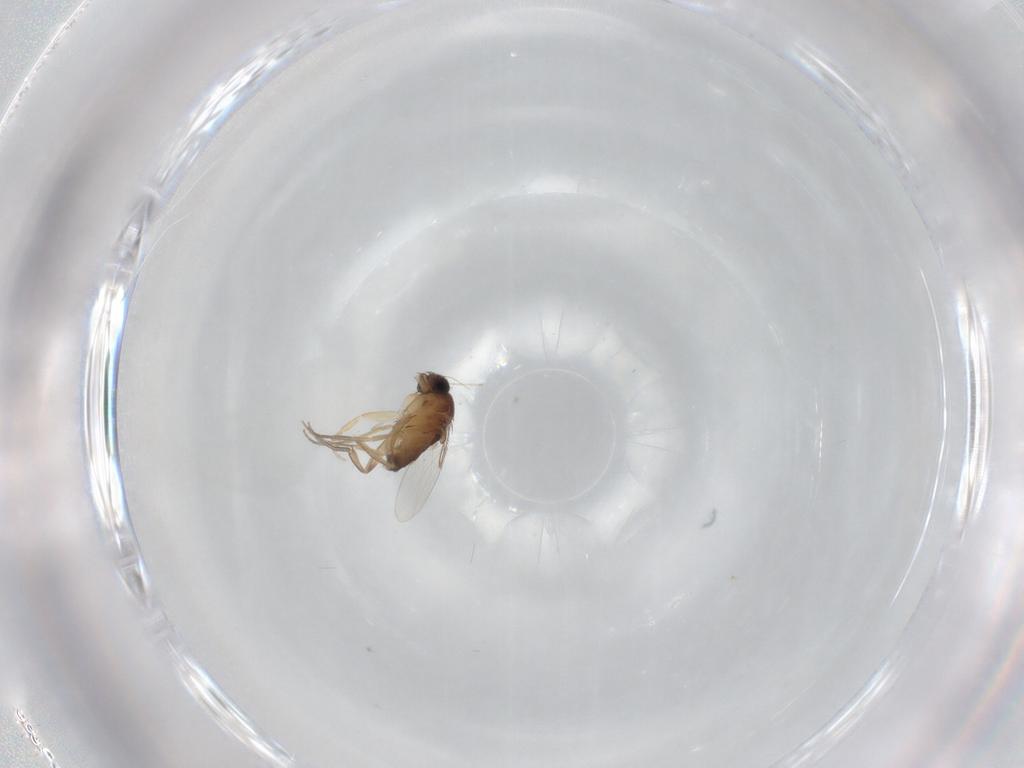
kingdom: Animalia
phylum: Arthropoda
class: Insecta
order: Diptera
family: Phoridae
